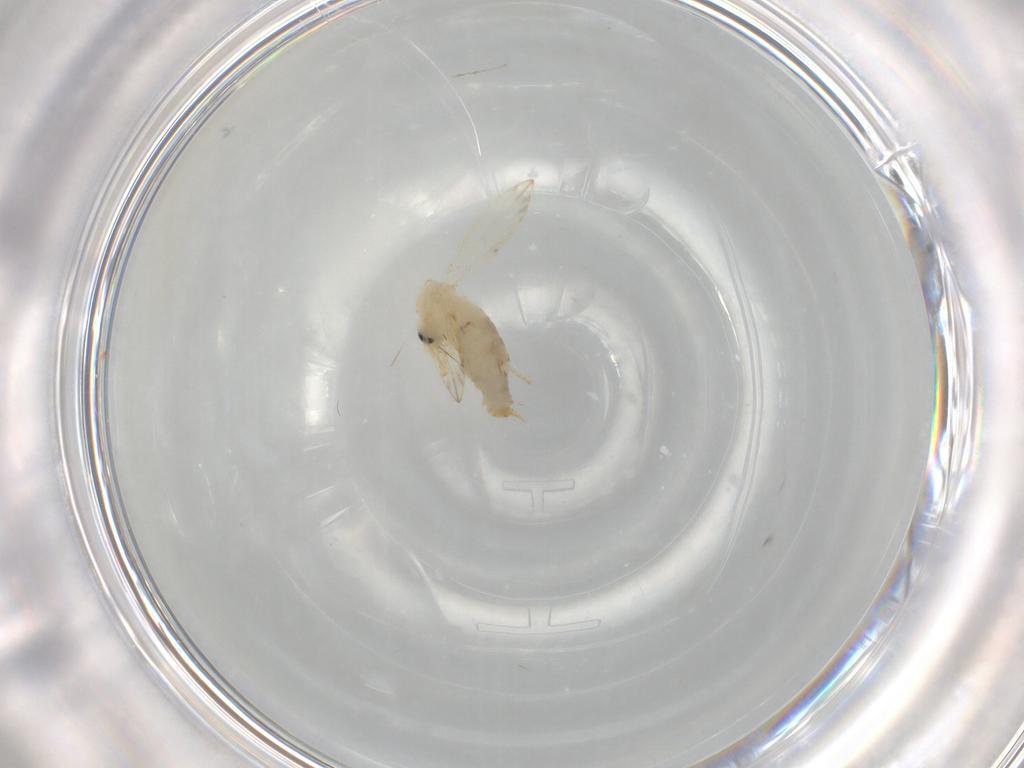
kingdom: Animalia
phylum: Arthropoda
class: Insecta
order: Diptera
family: Psychodidae
